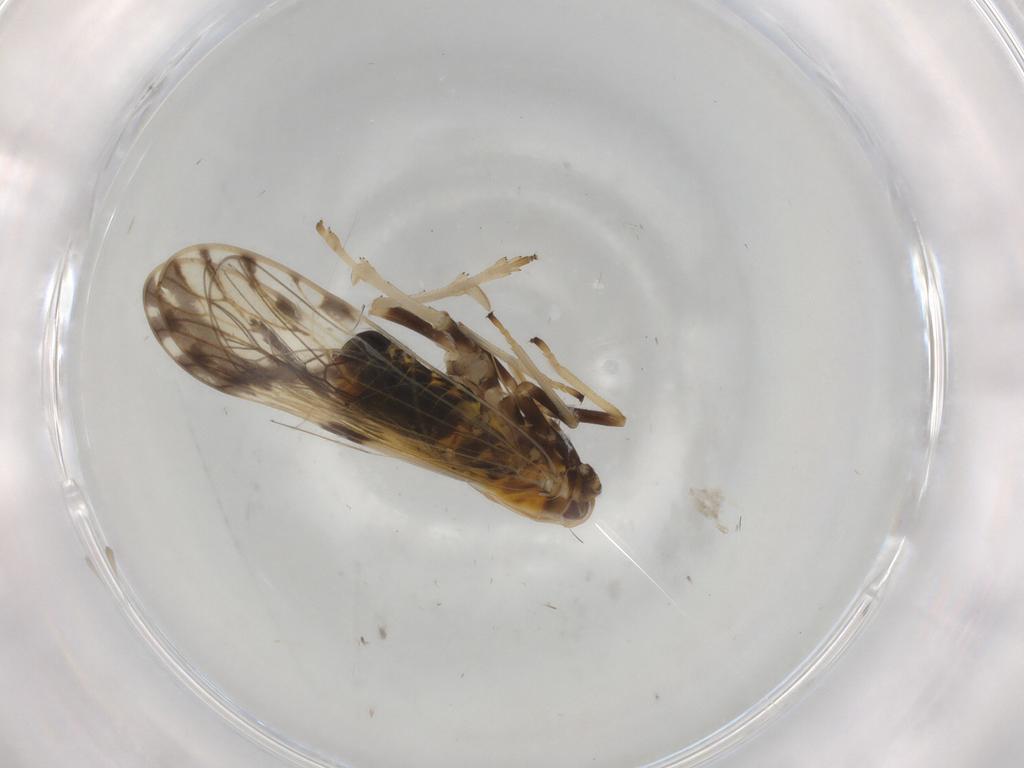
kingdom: Animalia
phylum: Arthropoda
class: Insecta
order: Hemiptera
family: Delphacidae
